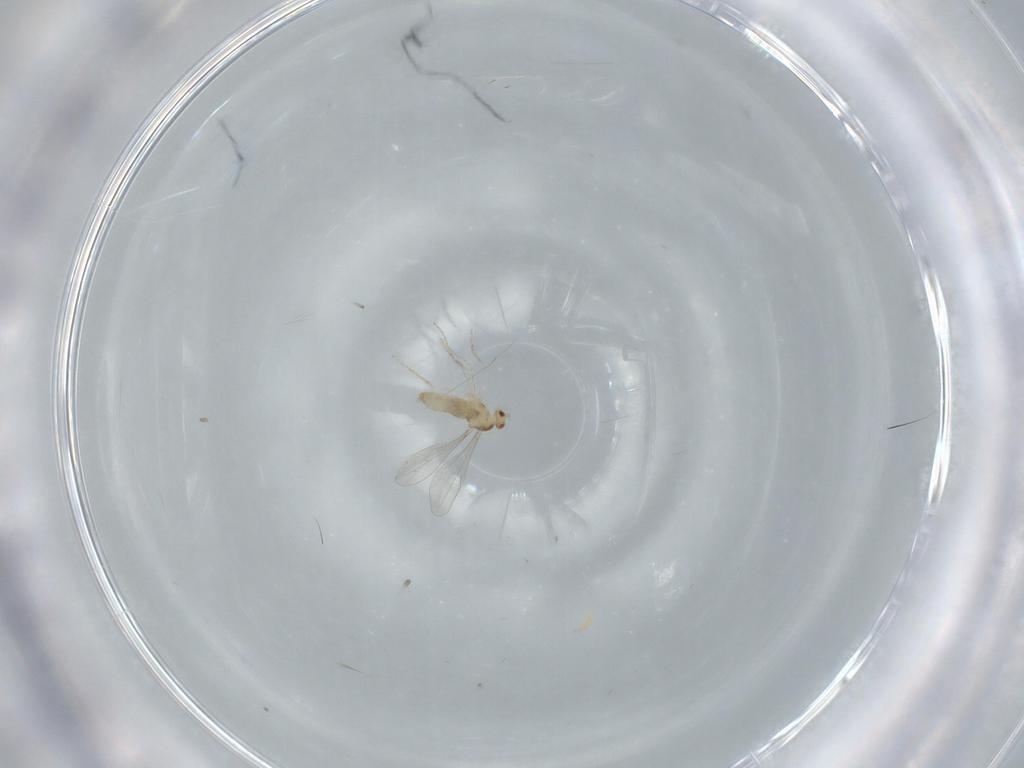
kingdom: Animalia
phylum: Arthropoda
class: Insecta
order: Diptera
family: Cecidomyiidae
